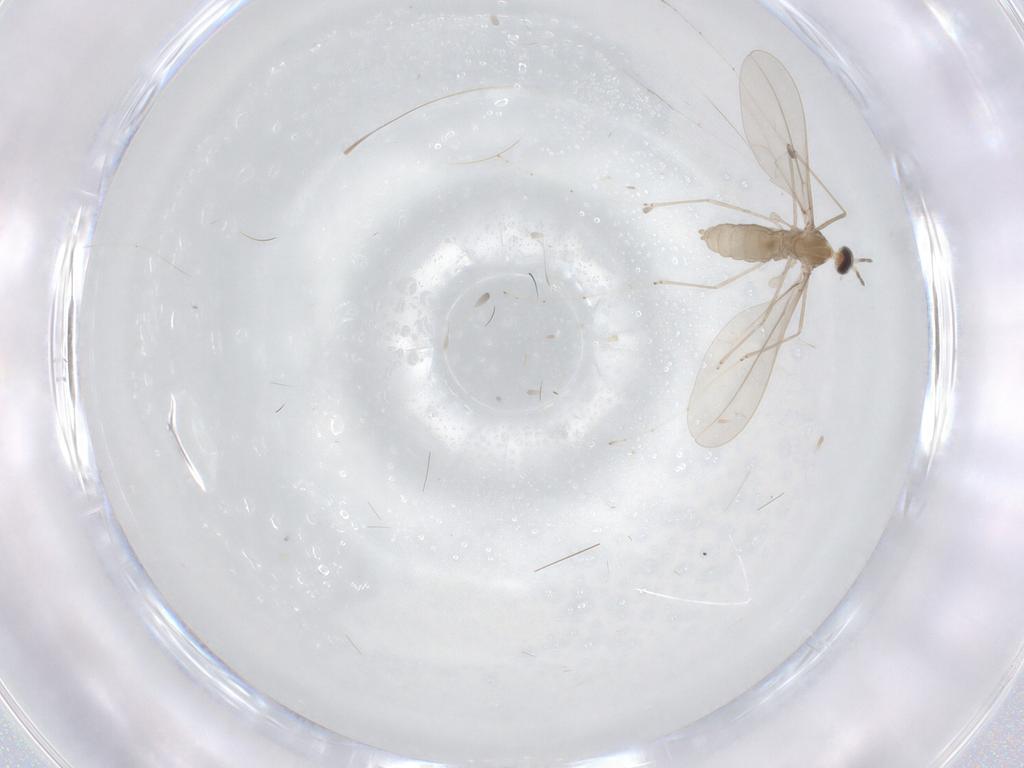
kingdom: Animalia
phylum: Arthropoda
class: Insecta
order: Diptera
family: Cecidomyiidae
